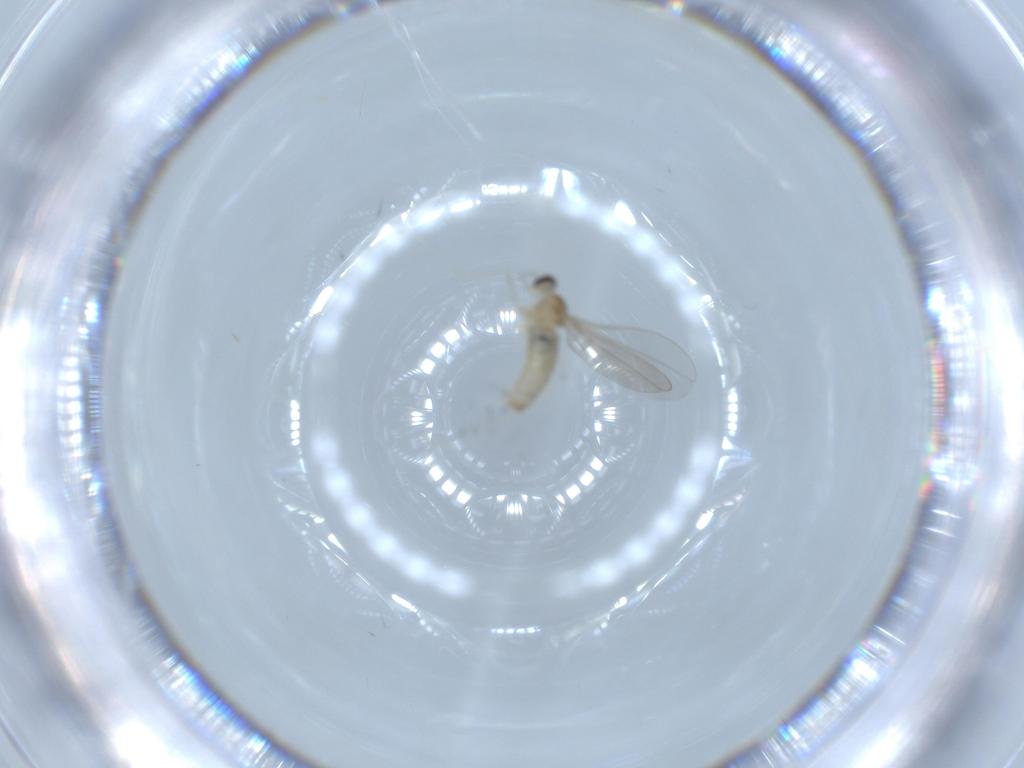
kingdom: Animalia
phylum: Arthropoda
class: Insecta
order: Diptera
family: Cecidomyiidae
